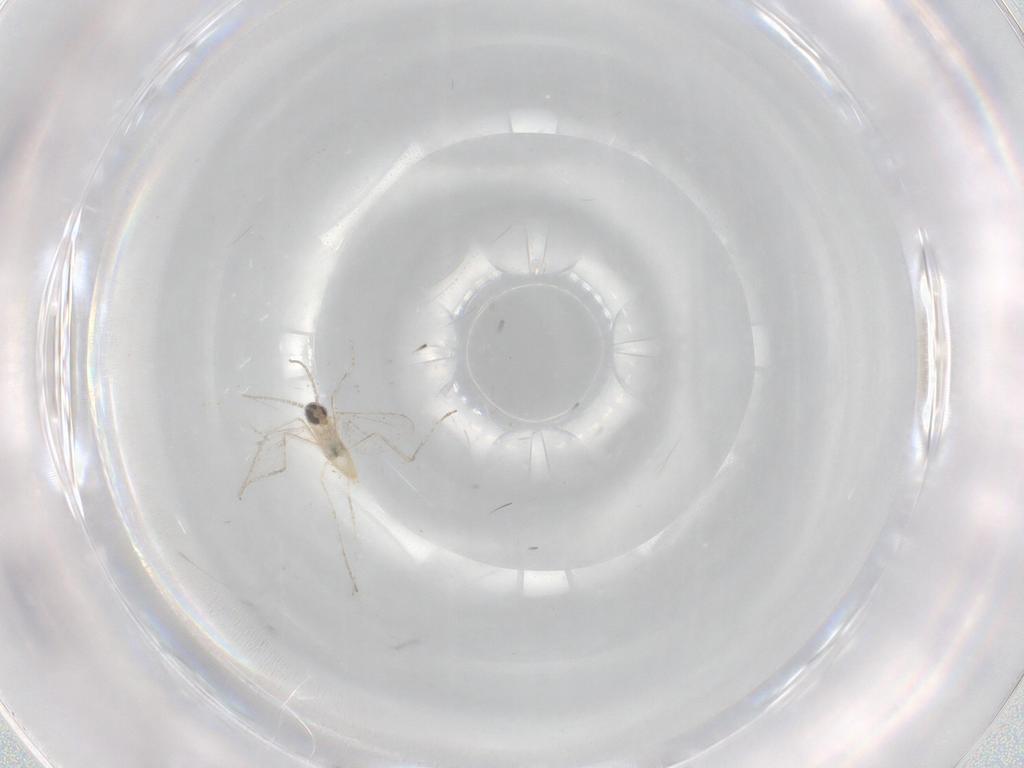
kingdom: Animalia
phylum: Arthropoda
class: Insecta
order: Diptera
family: Cecidomyiidae
